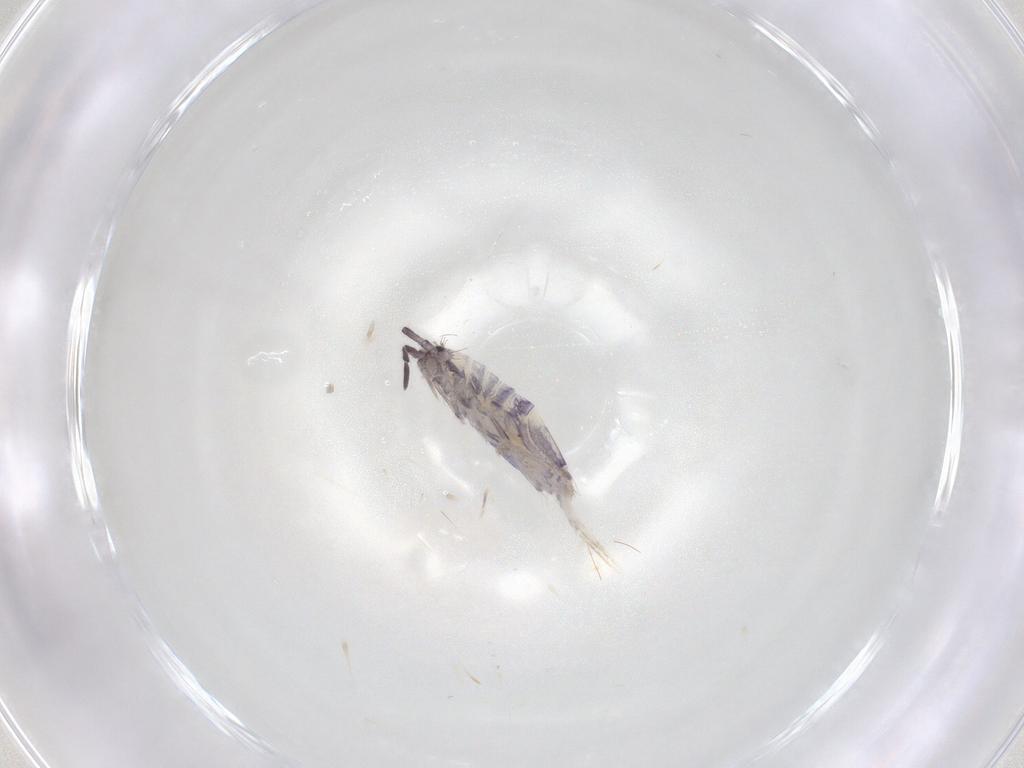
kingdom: Animalia
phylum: Arthropoda
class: Collembola
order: Poduromorpha
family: Hypogastruridae
